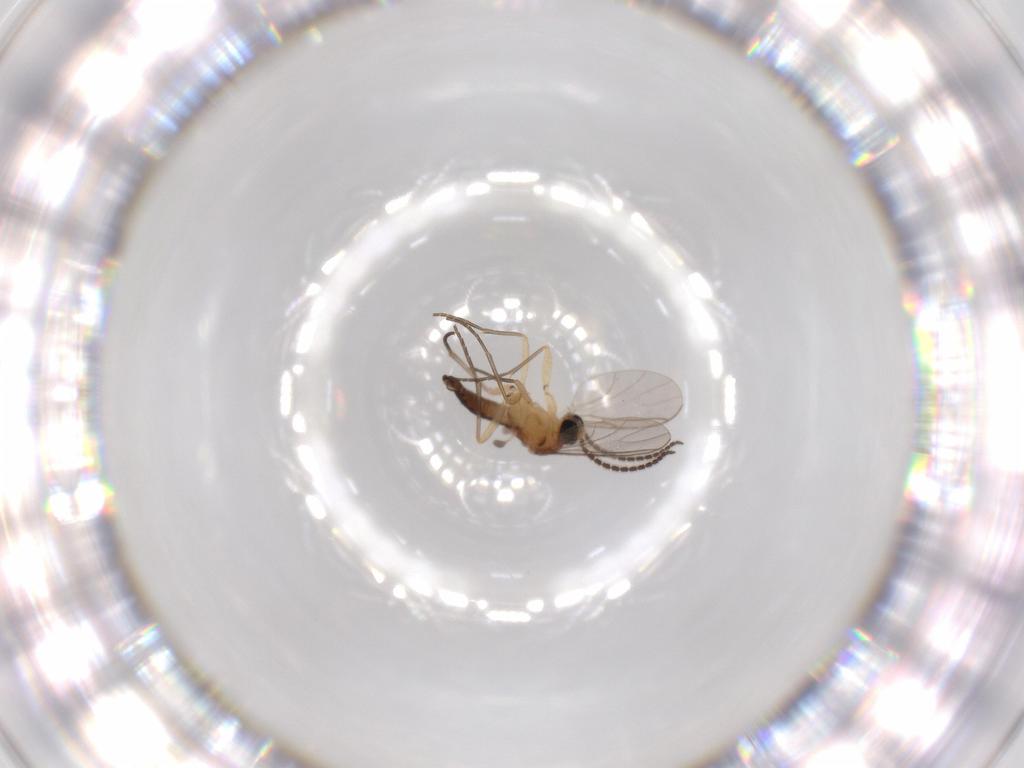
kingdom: Animalia
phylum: Arthropoda
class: Insecta
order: Diptera
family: Sciaridae
